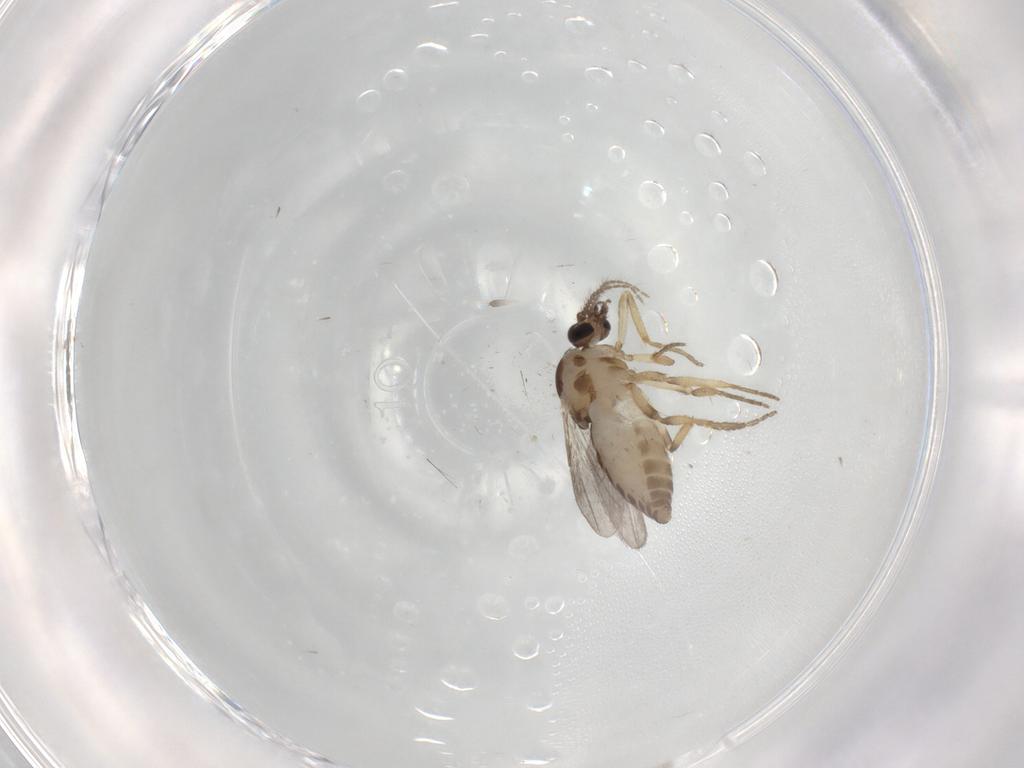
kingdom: Animalia
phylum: Arthropoda
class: Insecta
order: Diptera
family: Ceratopogonidae
